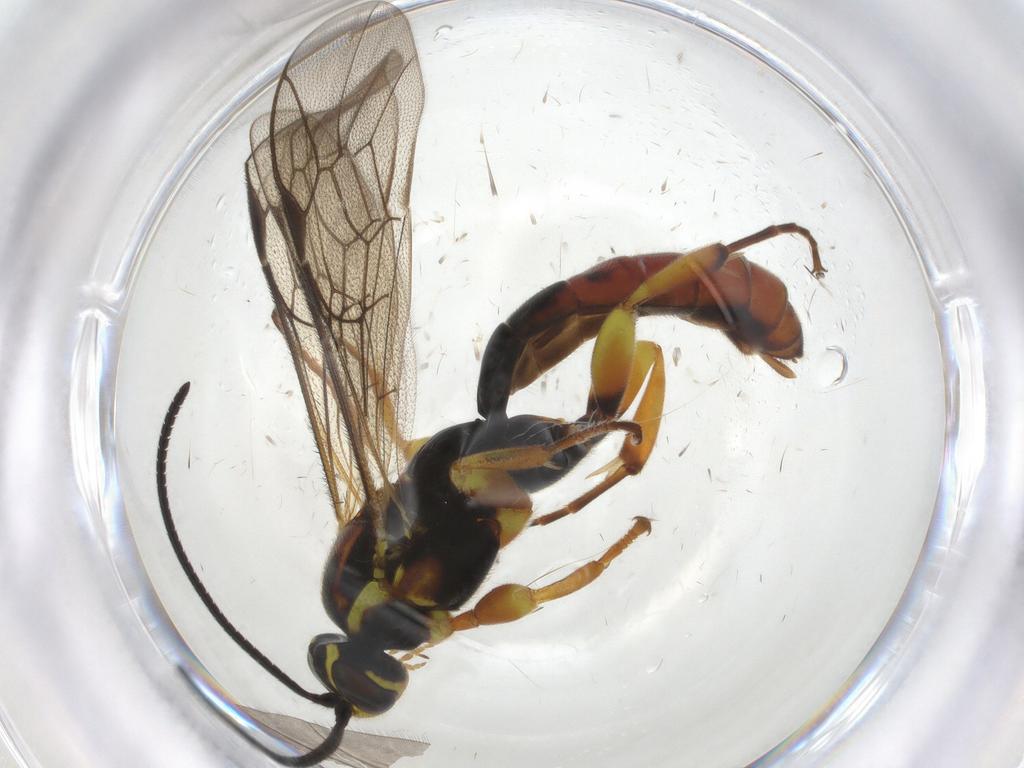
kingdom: Animalia
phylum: Arthropoda
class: Insecta
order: Hymenoptera
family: Ichneumonidae
